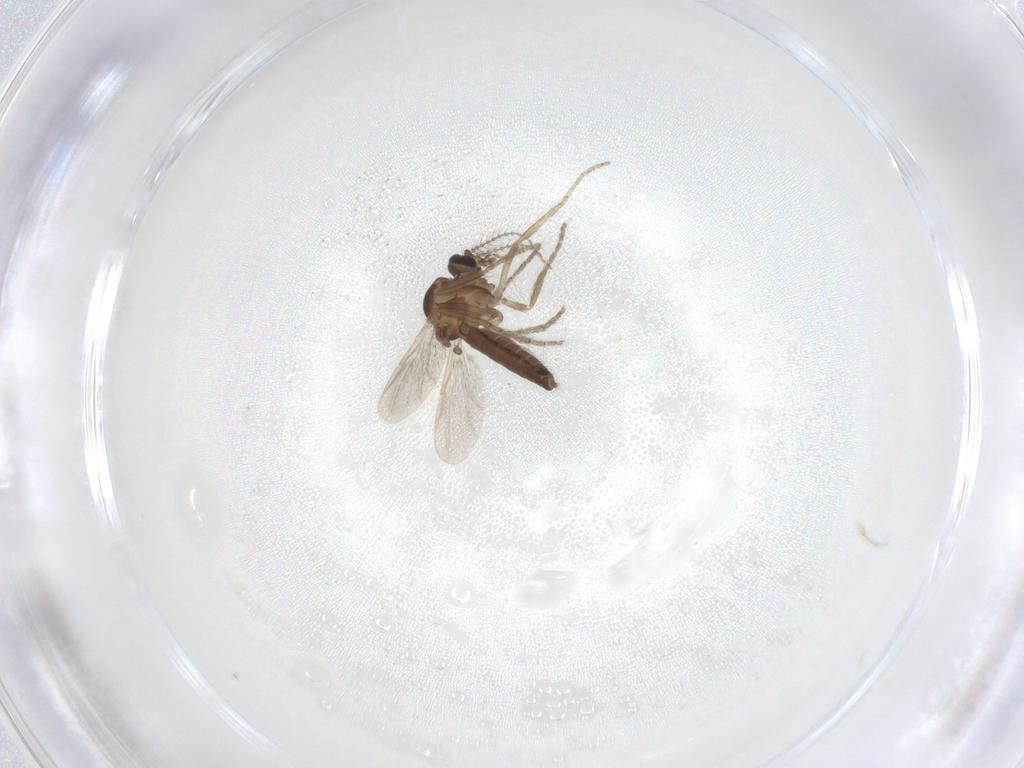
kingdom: Animalia
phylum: Arthropoda
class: Insecta
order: Diptera
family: Ceratopogonidae
